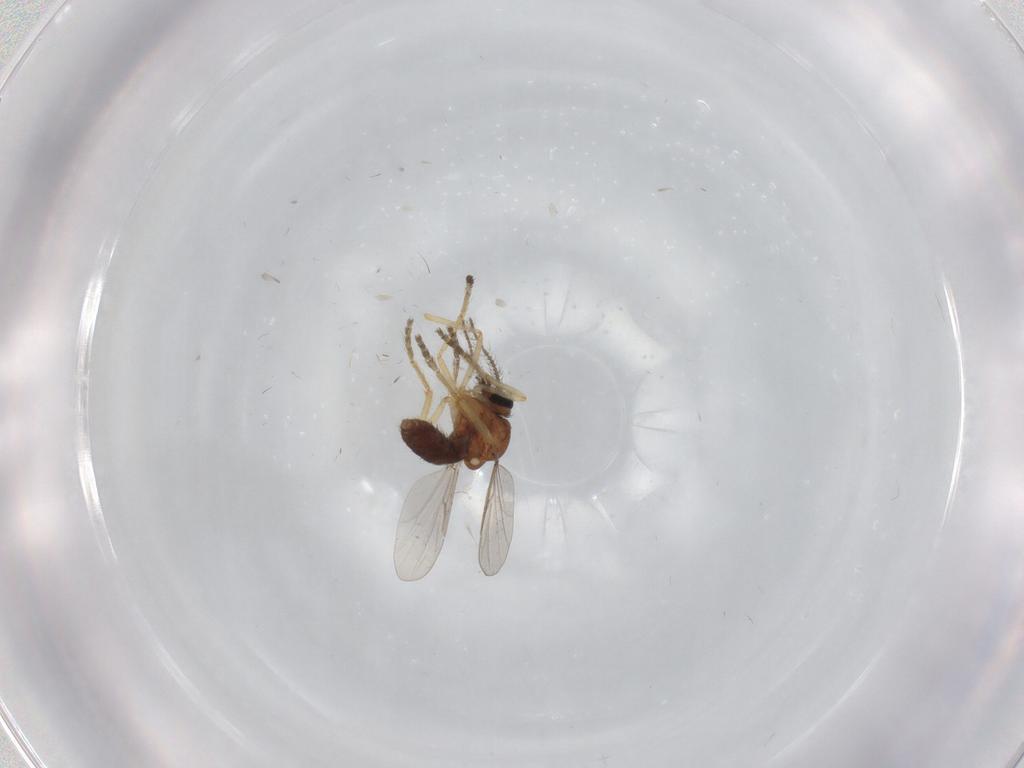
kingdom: Animalia
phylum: Arthropoda
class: Insecta
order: Diptera
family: Ceratopogonidae
